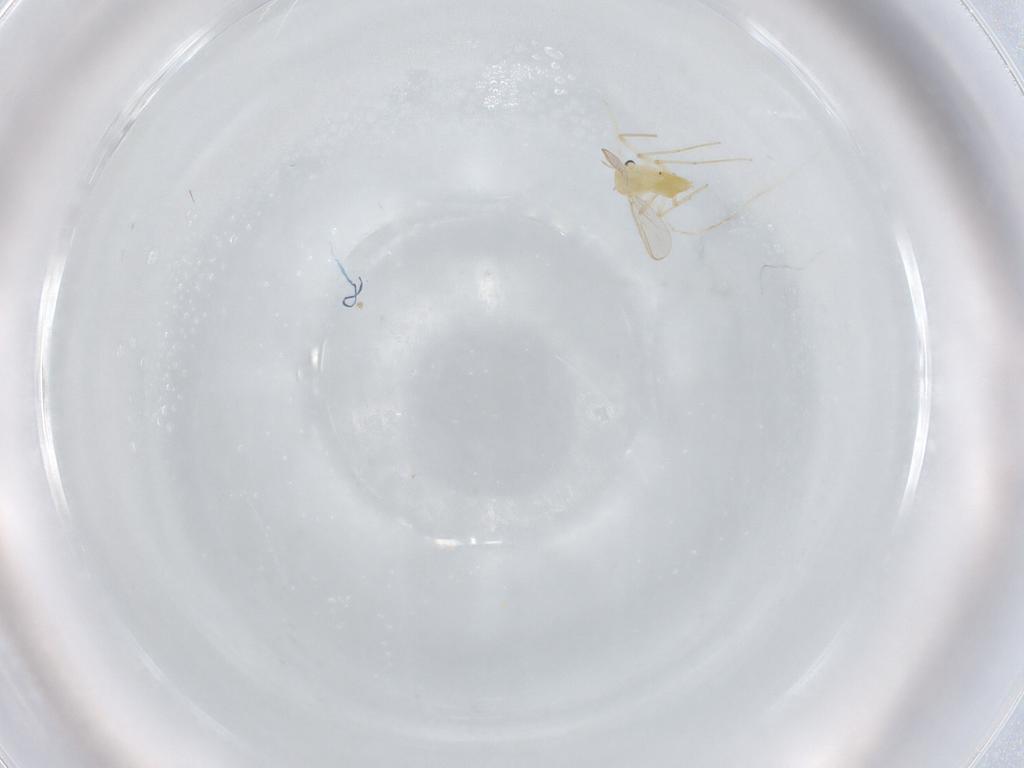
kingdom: Animalia
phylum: Arthropoda
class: Insecta
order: Diptera
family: Chironomidae
